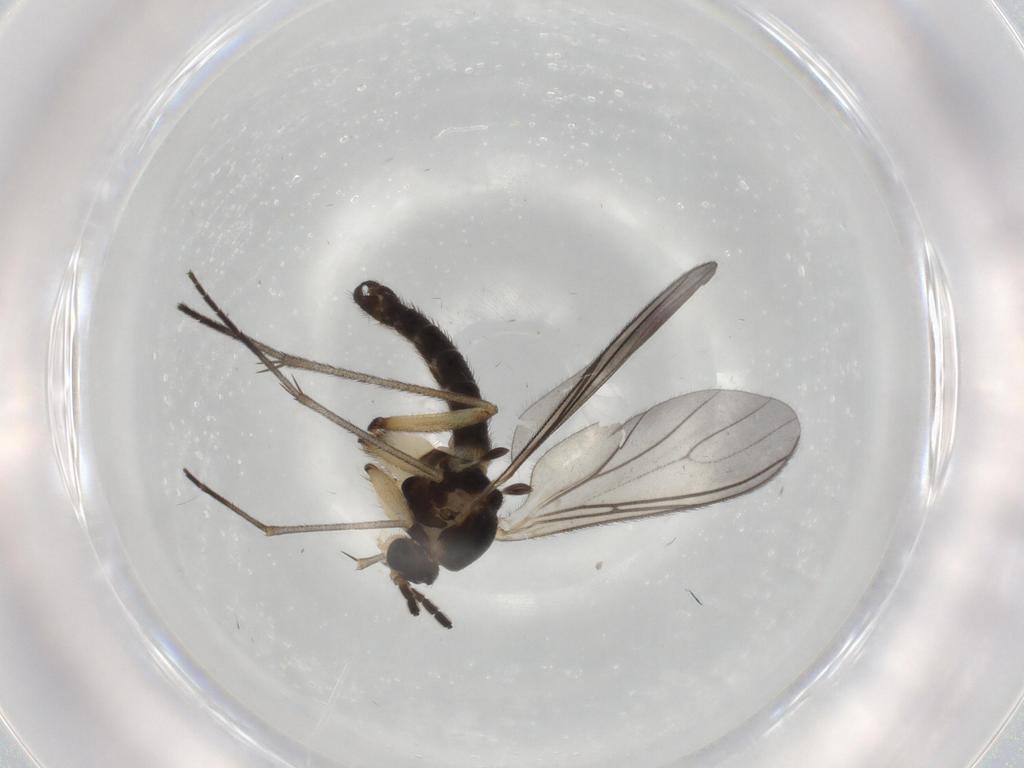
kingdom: Animalia
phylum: Arthropoda
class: Insecta
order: Diptera
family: Sciaridae
